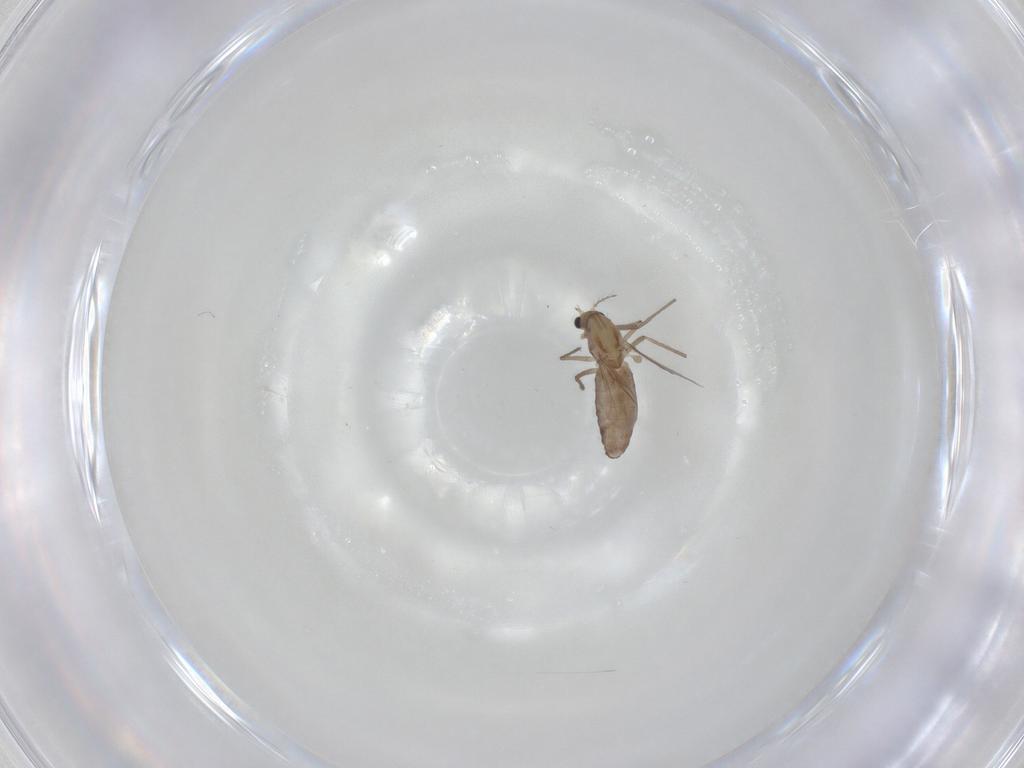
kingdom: Animalia
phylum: Arthropoda
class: Insecta
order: Diptera
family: Chironomidae
